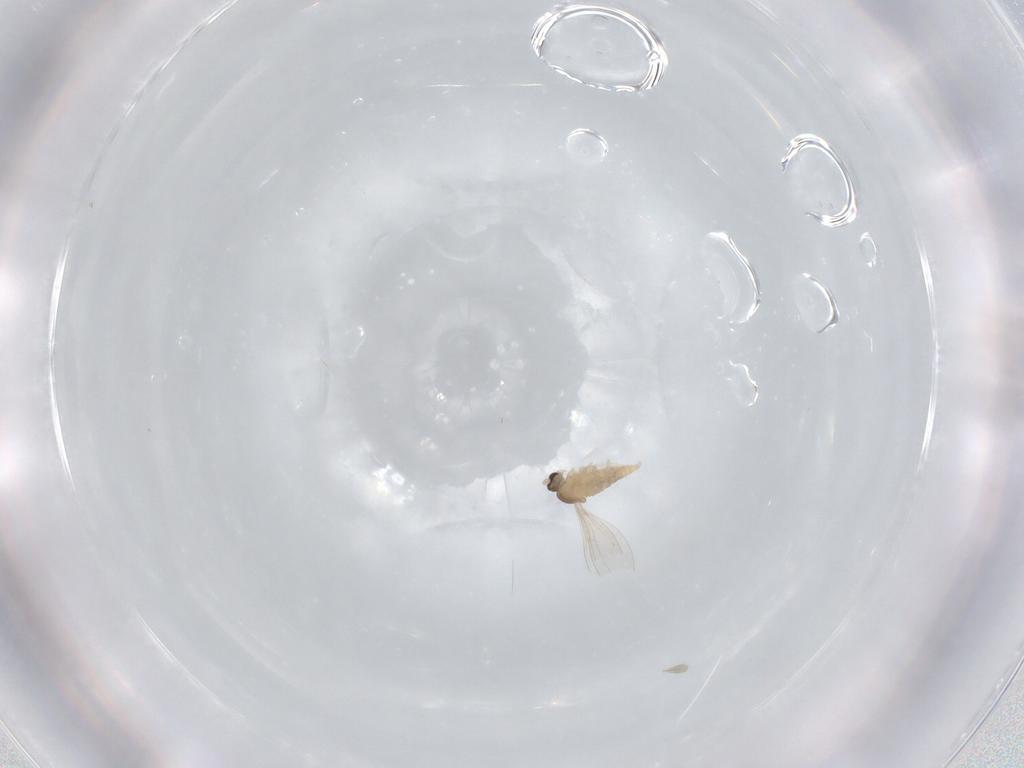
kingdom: Animalia
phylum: Arthropoda
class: Insecta
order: Diptera
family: Cecidomyiidae
